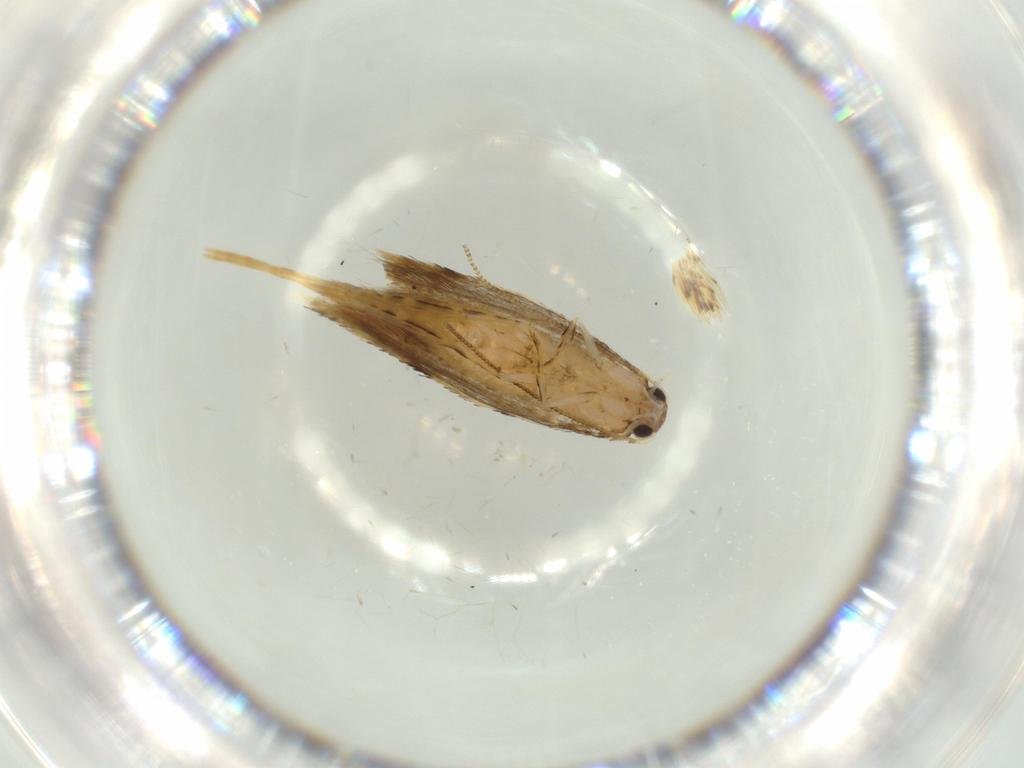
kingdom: Animalia
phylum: Arthropoda
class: Insecta
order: Lepidoptera
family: Tineidae
